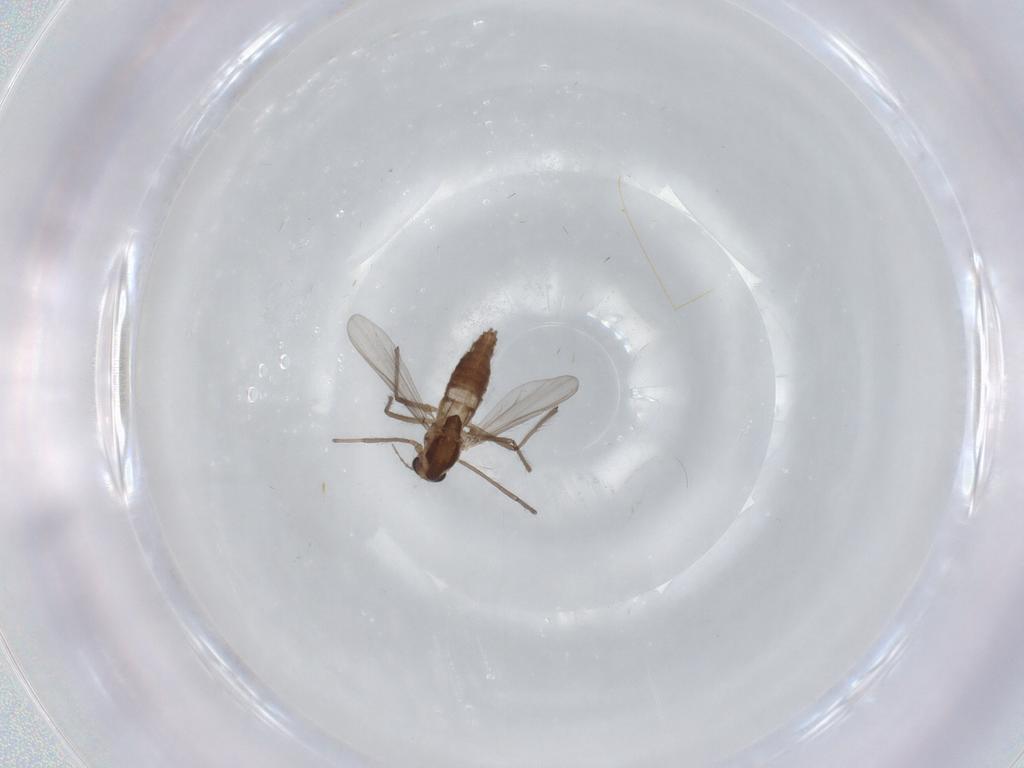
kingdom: Animalia
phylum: Arthropoda
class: Insecta
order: Diptera
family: Chironomidae
